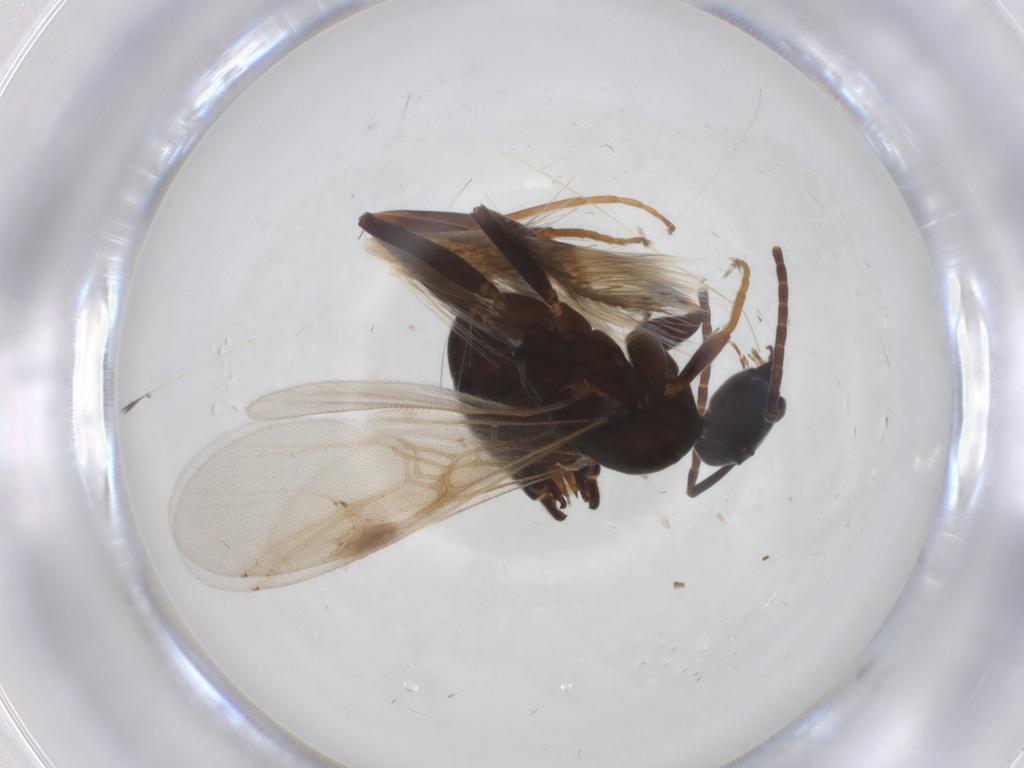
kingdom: Animalia
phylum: Arthropoda
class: Insecta
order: Hymenoptera
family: Formicidae
